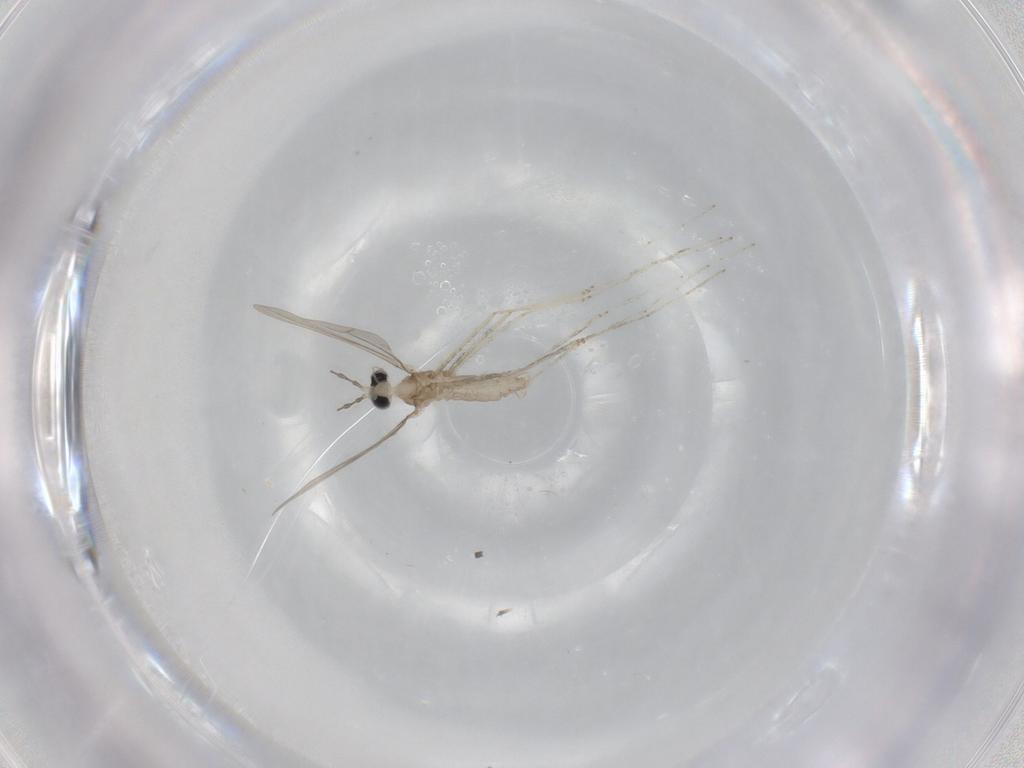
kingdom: Animalia
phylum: Arthropoda
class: Insecta
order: Diptera
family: Cecidomyiidae
